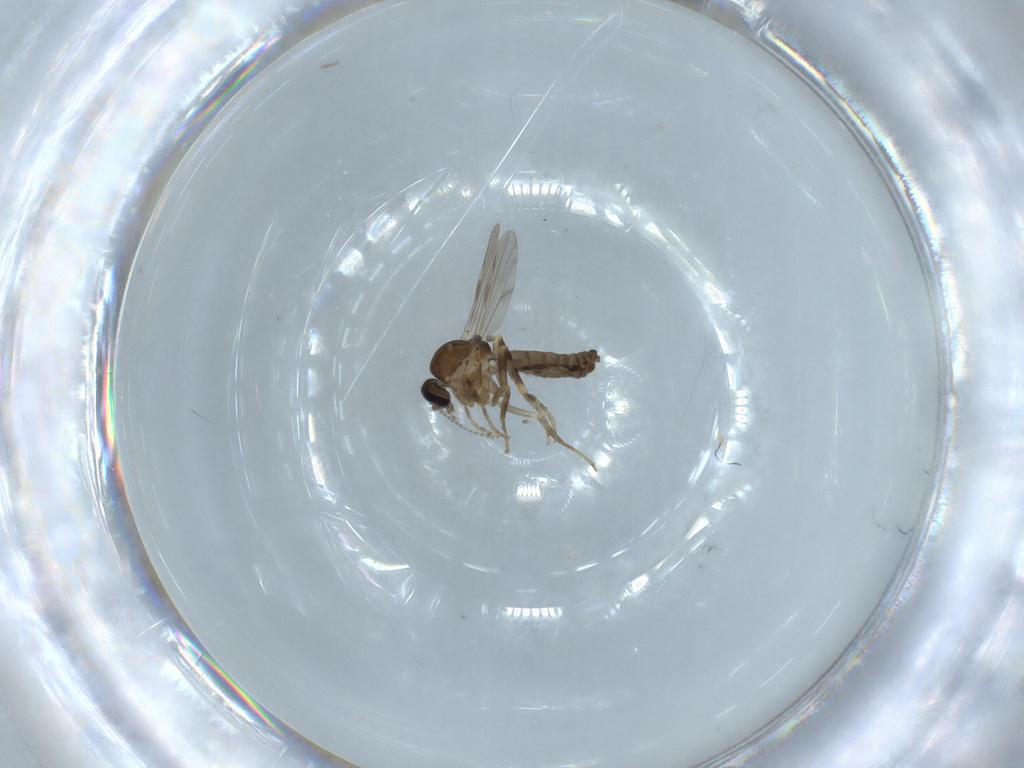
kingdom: Animalia
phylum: Arthropoda
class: Insecta
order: Diptera
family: Ceratopogonidae
